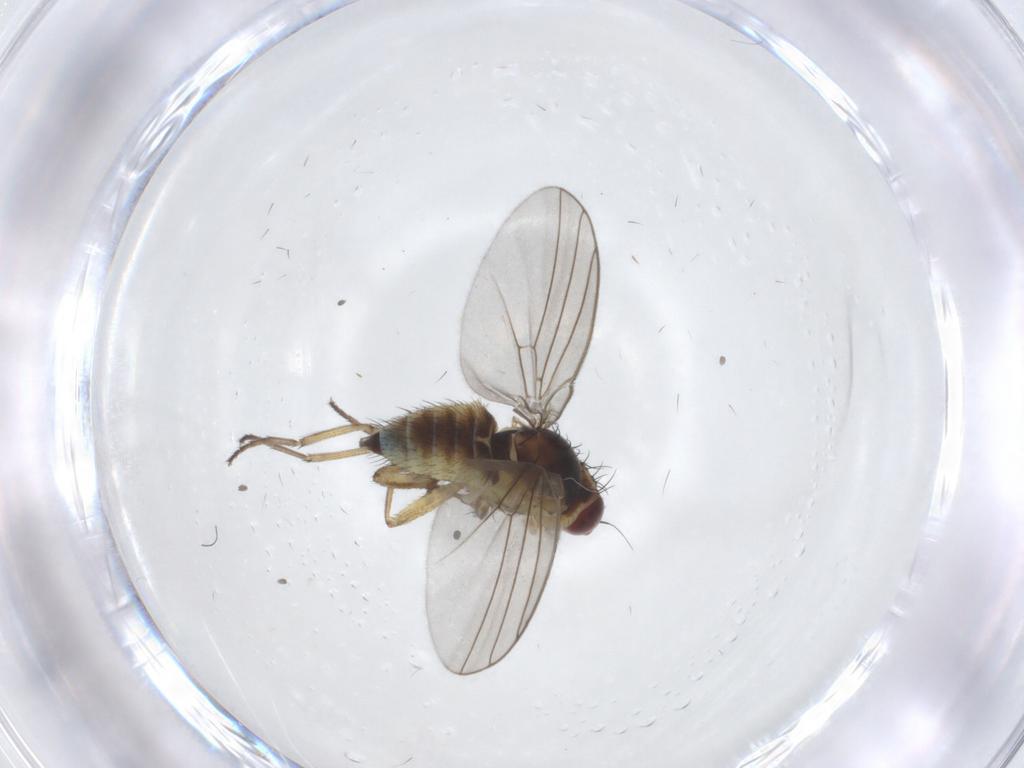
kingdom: Animalia
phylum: Arthropoda
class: Insecta
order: Diptera
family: Agromyzidae
